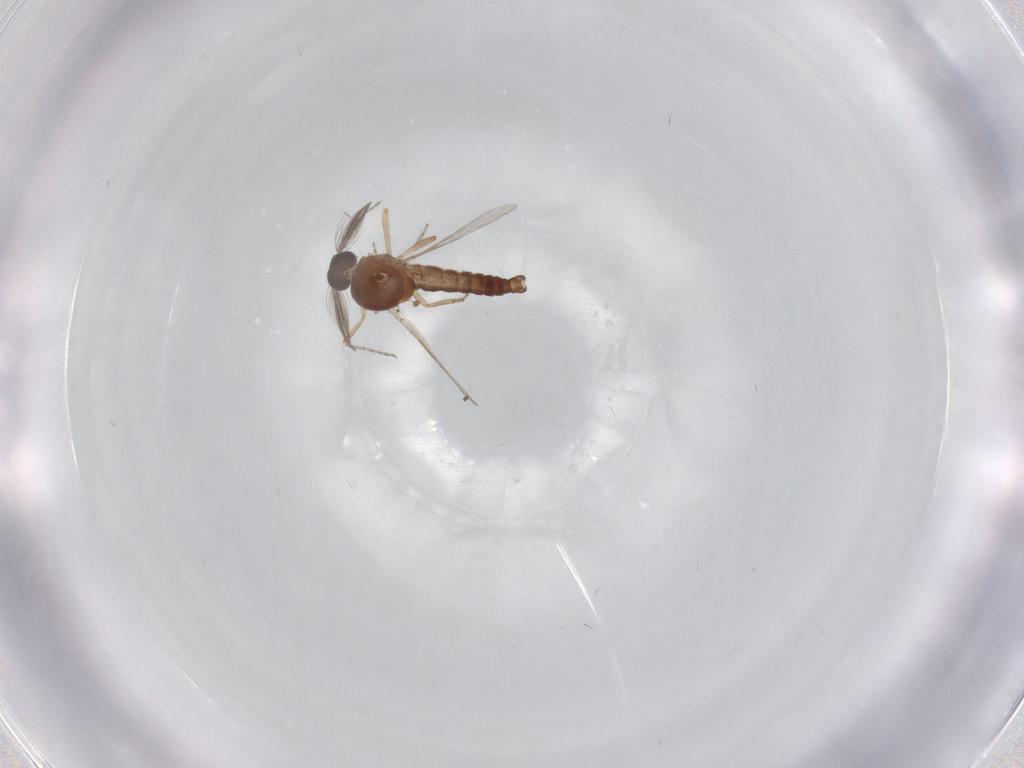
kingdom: Animalia
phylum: Arthropoda
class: Insecta
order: Diptera
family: Sciaridae
